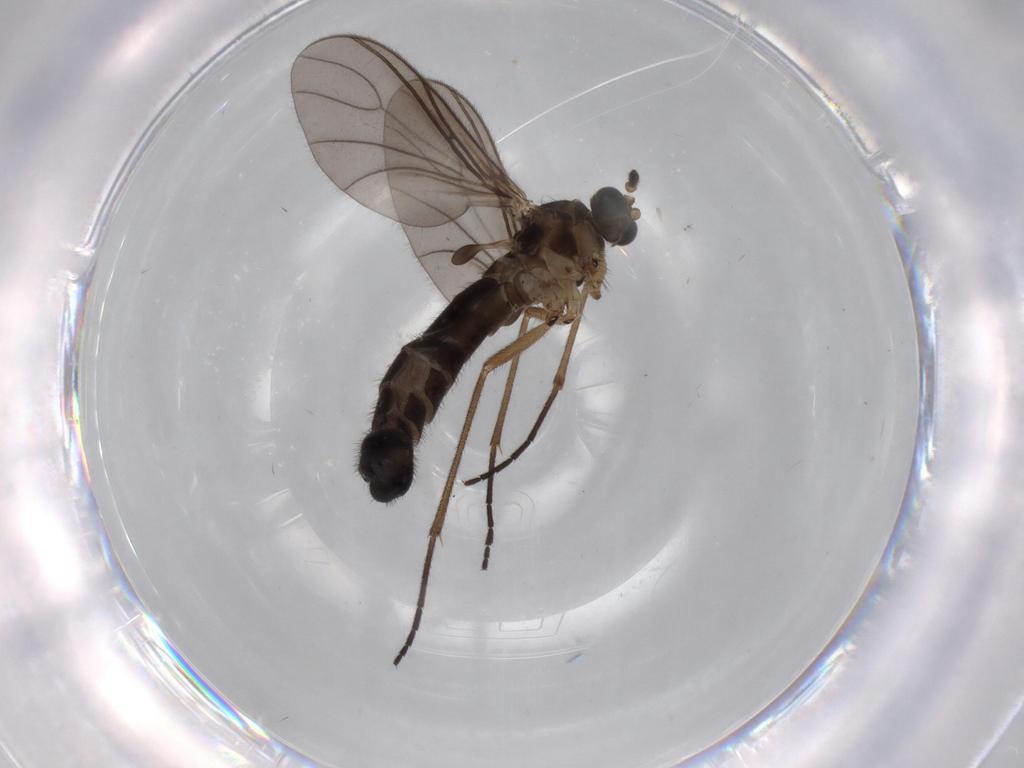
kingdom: Animalia
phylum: Arthropoda
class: Insecta
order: Diptera
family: Sciaridae
